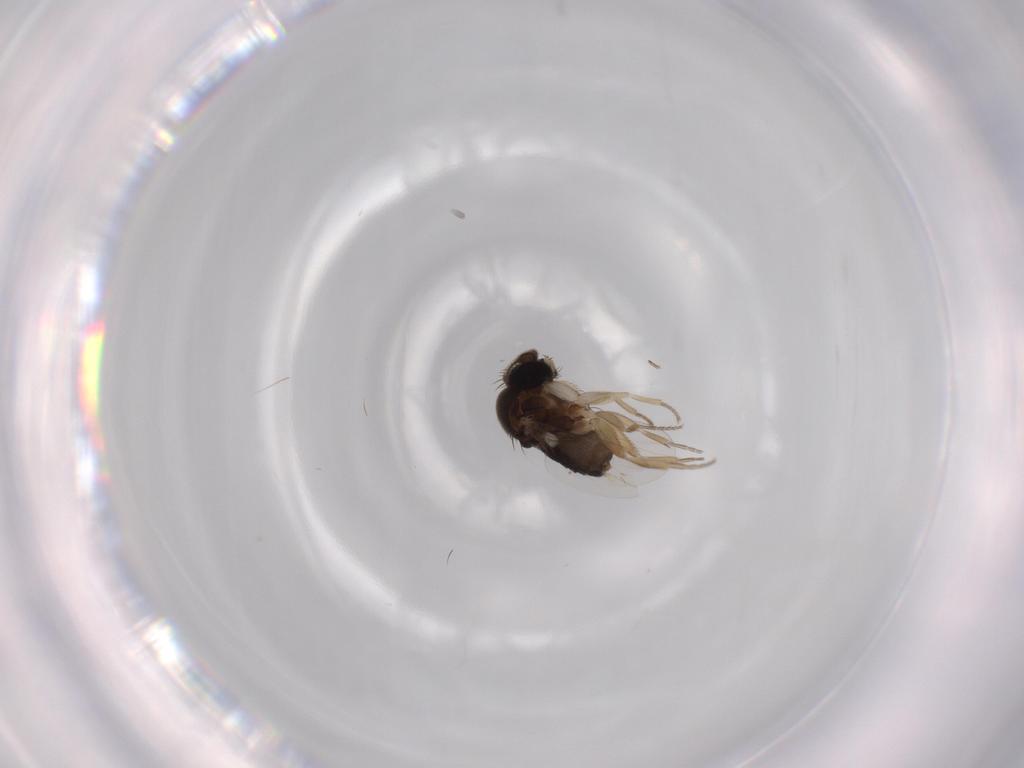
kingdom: Animalia
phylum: Arthropoda
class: Insecta
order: Diptera
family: Phoridae
